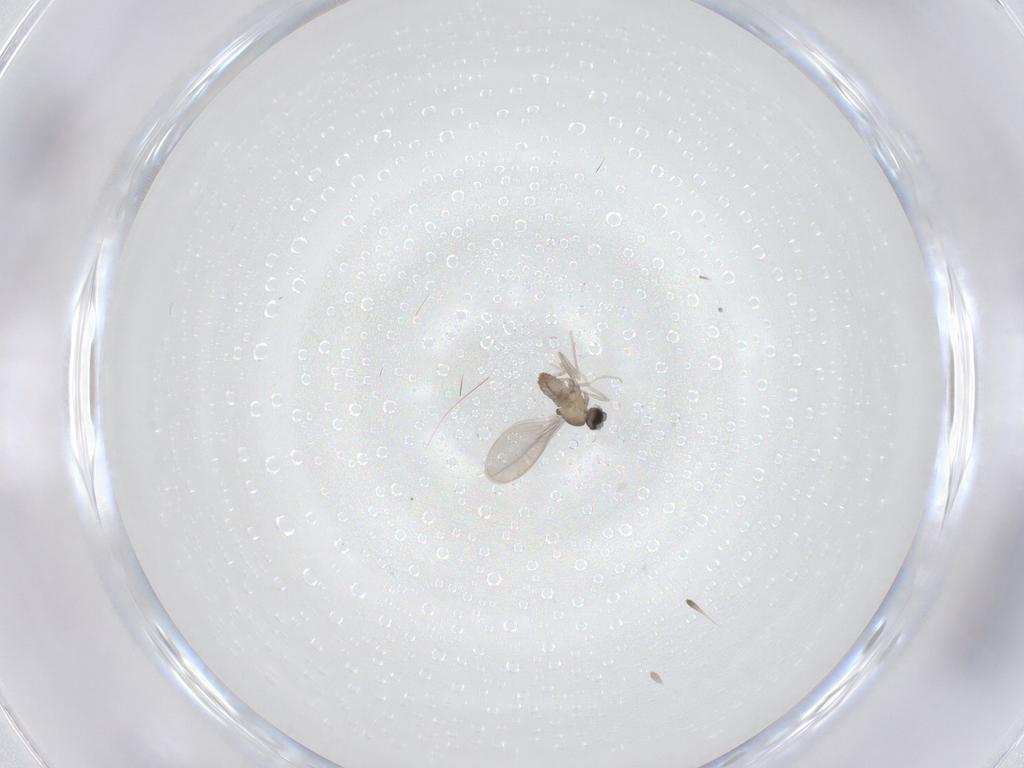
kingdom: Animalia
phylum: Arthropoda
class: Insecta
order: Diptera
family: Cecidomyiidae
